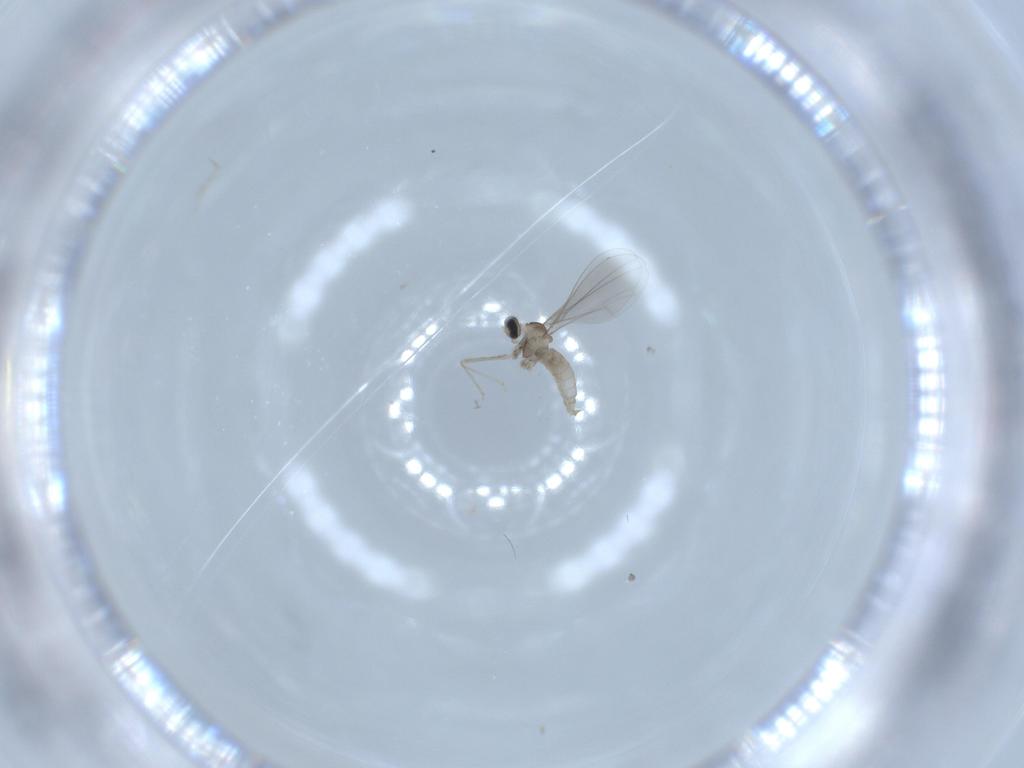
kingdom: Animalia
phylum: Arthropoda
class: Insecta
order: Diptera
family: Cecidomyiidae
